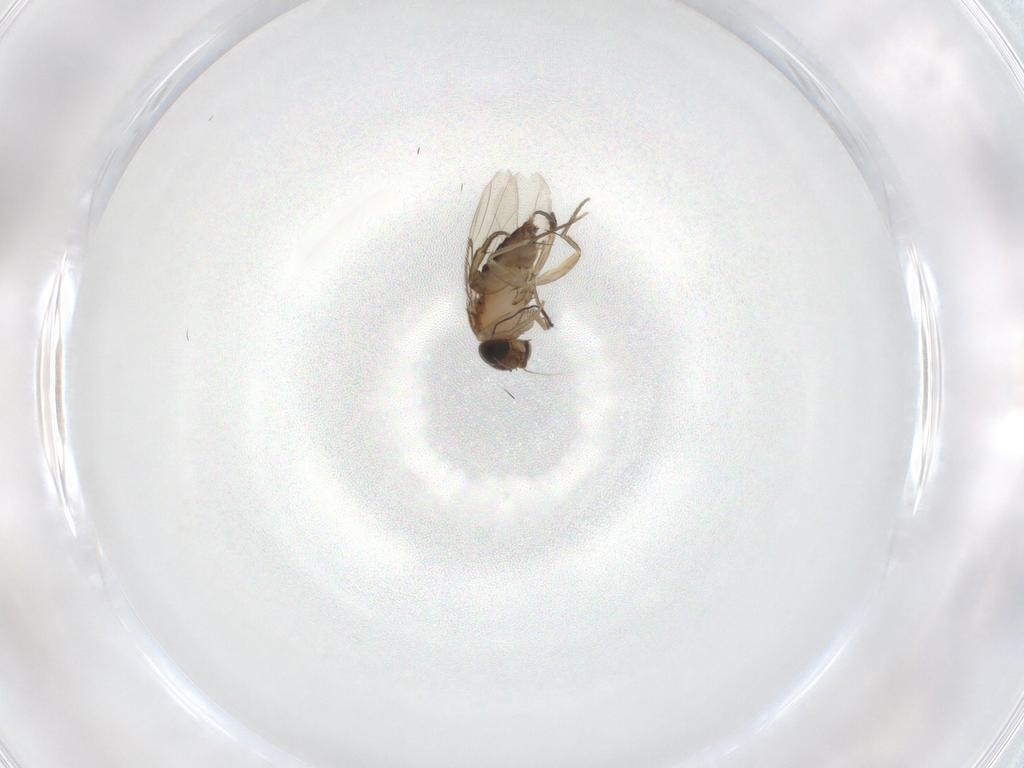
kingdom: Animalia
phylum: Arthropoda
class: Insecta
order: Diptera
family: Phoridae
